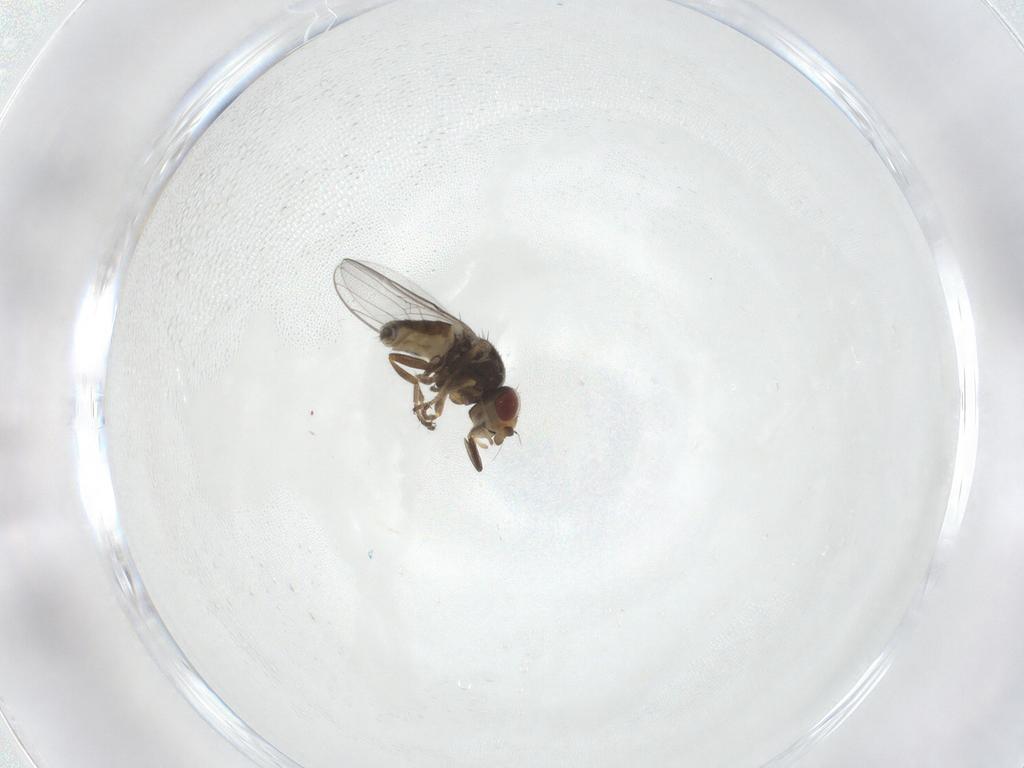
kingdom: Animalia
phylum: Arthropoda
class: Insecta
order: Diptera
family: Chloropidae
